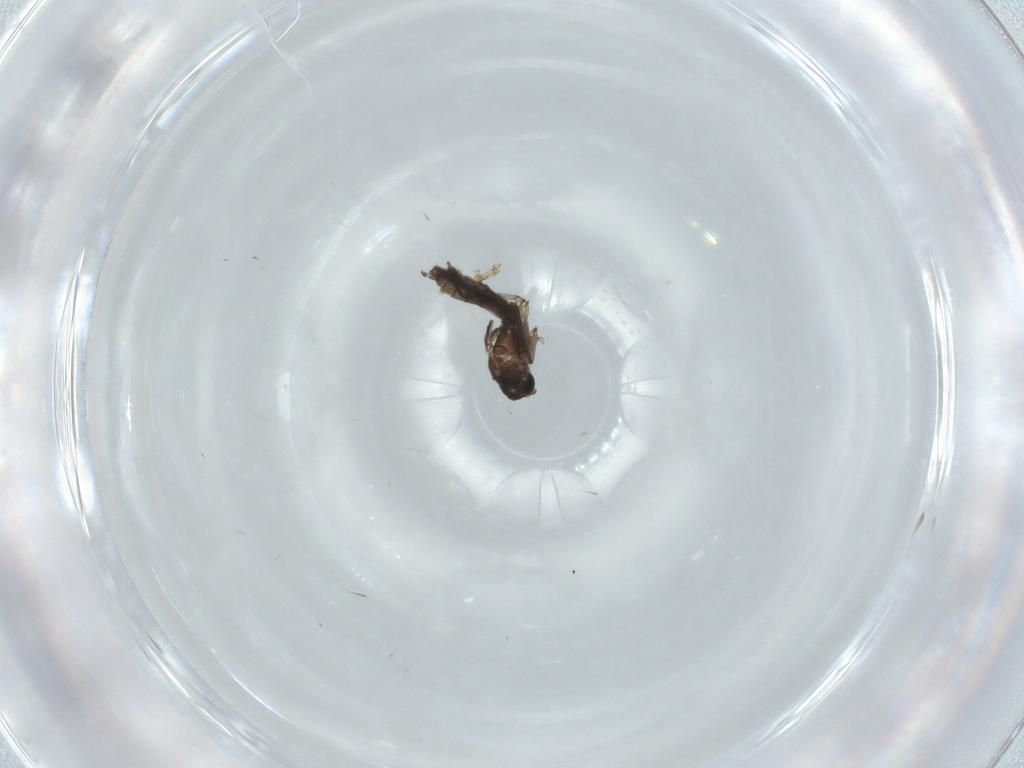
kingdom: Animalia
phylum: Arthropoda
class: Insecta
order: Diptera
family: Cecidomyiidae
